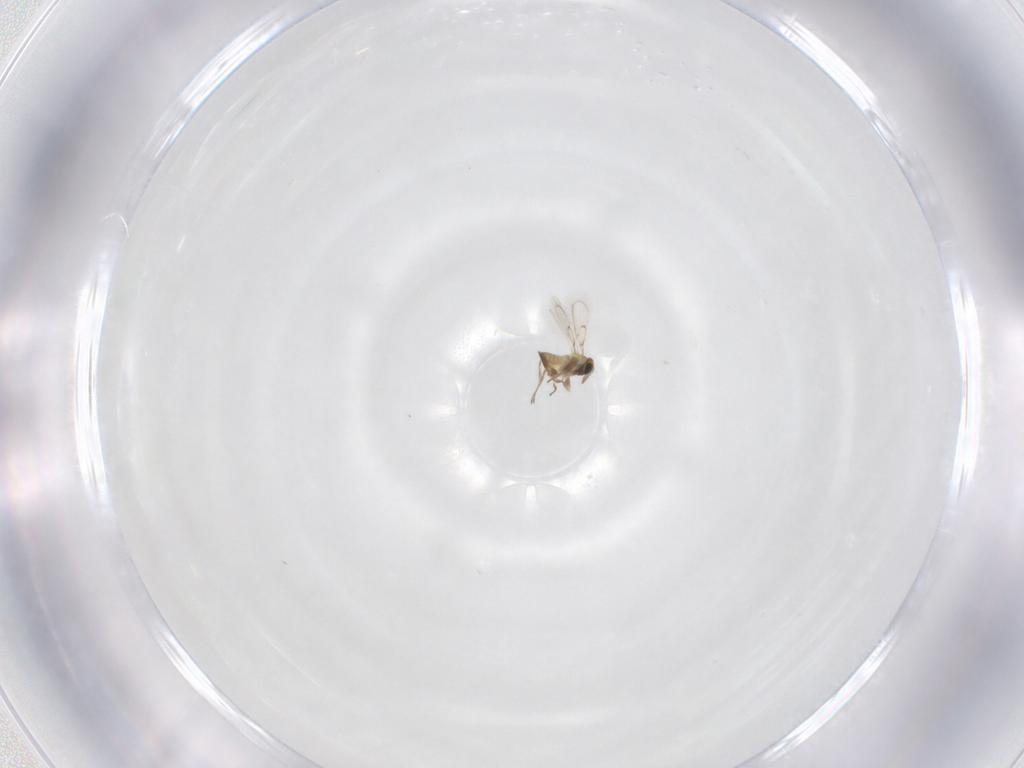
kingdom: Animalia
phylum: Arthropoda
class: Insecta
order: Hymenoptera
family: Trichogrammatidae
